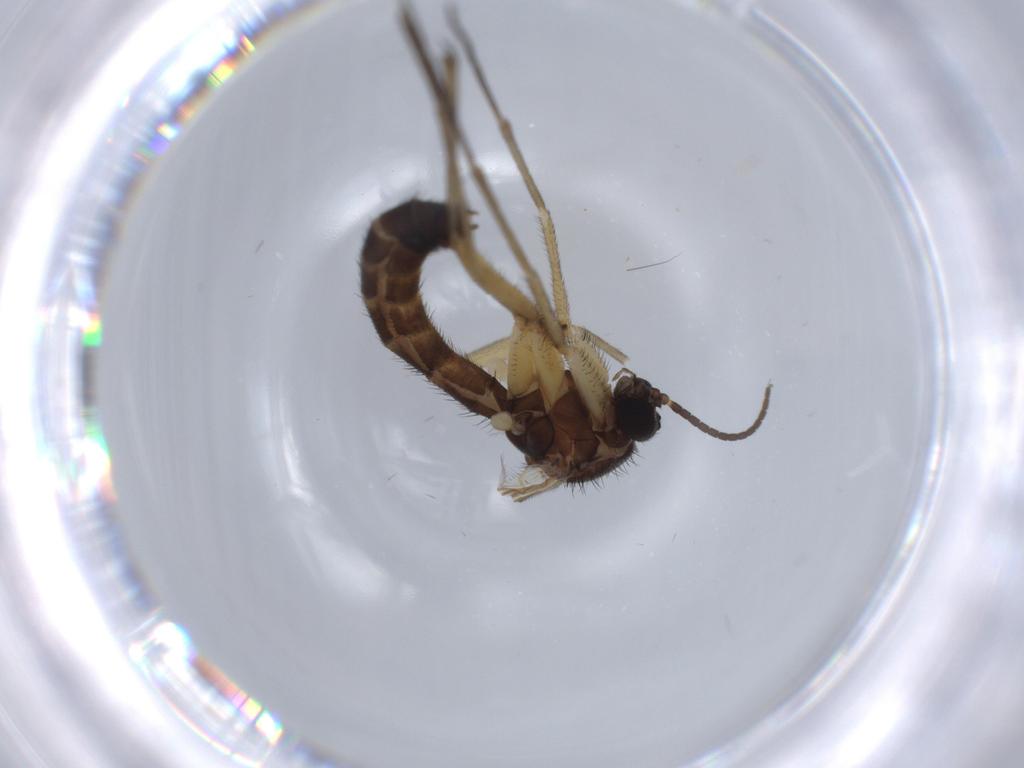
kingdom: Animalia
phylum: Arthropoda
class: Insecta
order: Diptera
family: Keroplatidae
